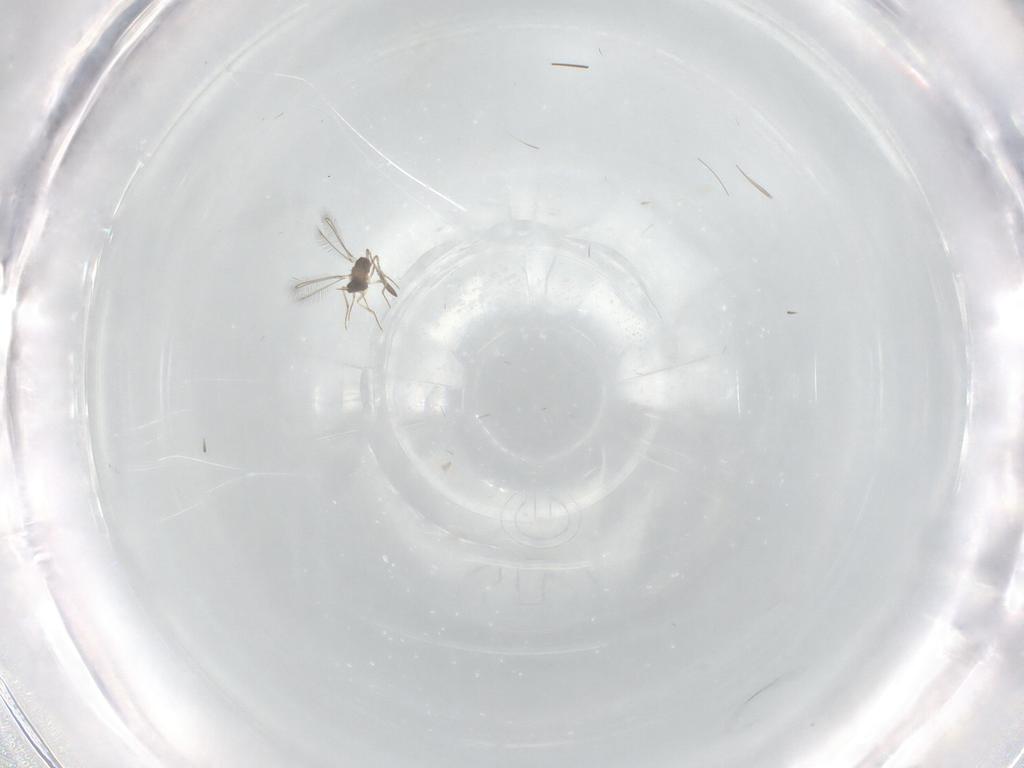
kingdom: Animalia
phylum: Arthropoda
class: Insecta
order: Hymenoptera
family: Mymaridae
